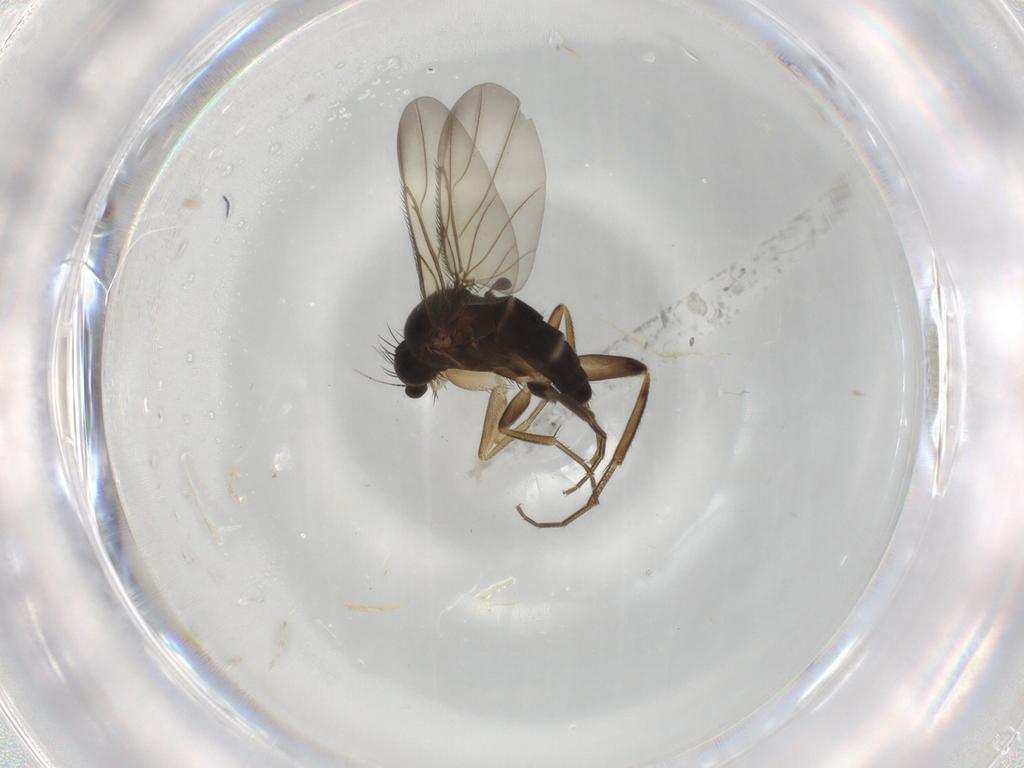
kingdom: Animalia
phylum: Arthropoda
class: Insecta
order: Diptera
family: Phoridae
